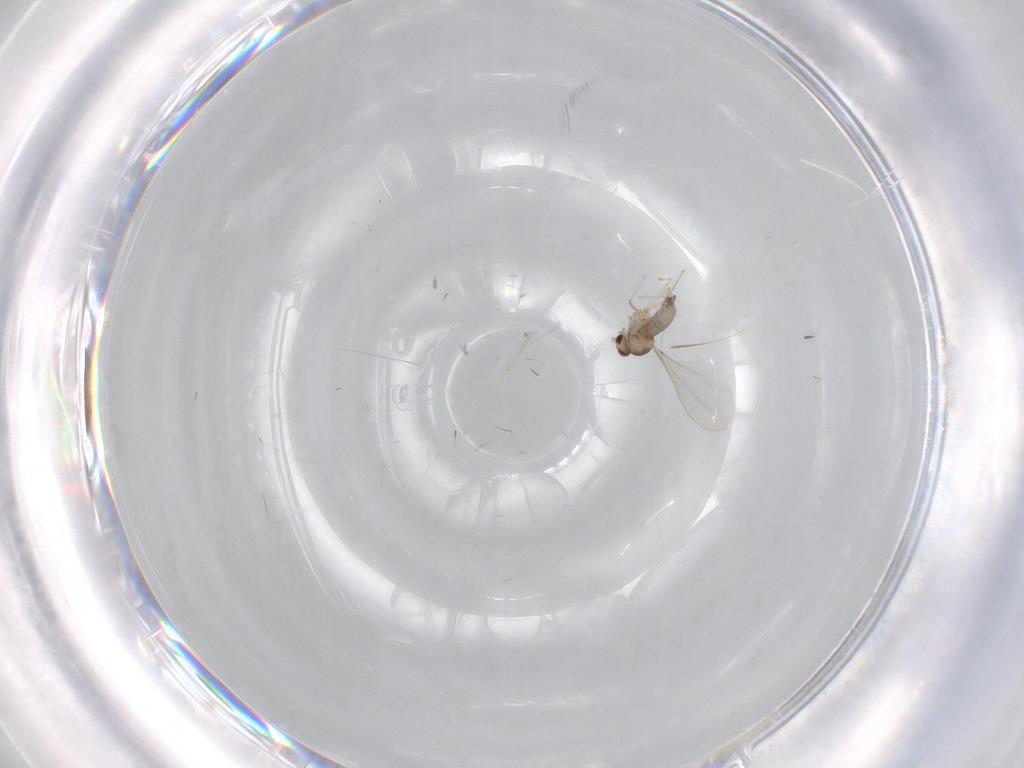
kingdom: Animalia
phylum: Arthropoda
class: Insecta
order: Diptera
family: Cecidomyiidae
